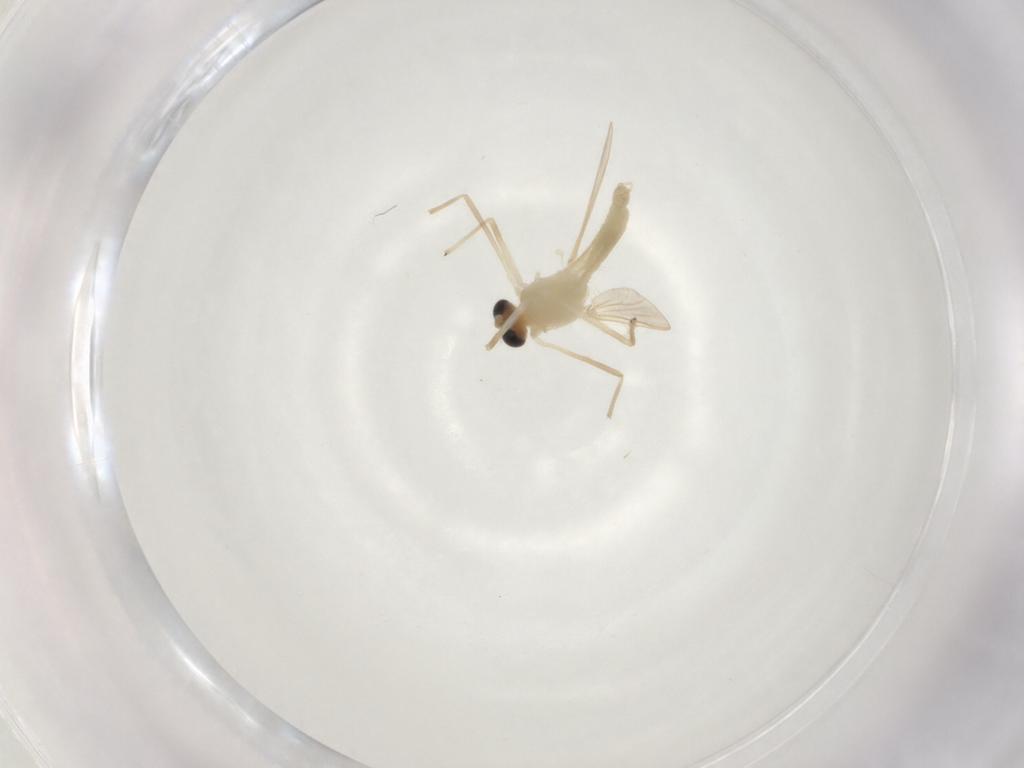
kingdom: Animalia
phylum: Arthropoda
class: Insecta
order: Diptera
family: Chironomidae
